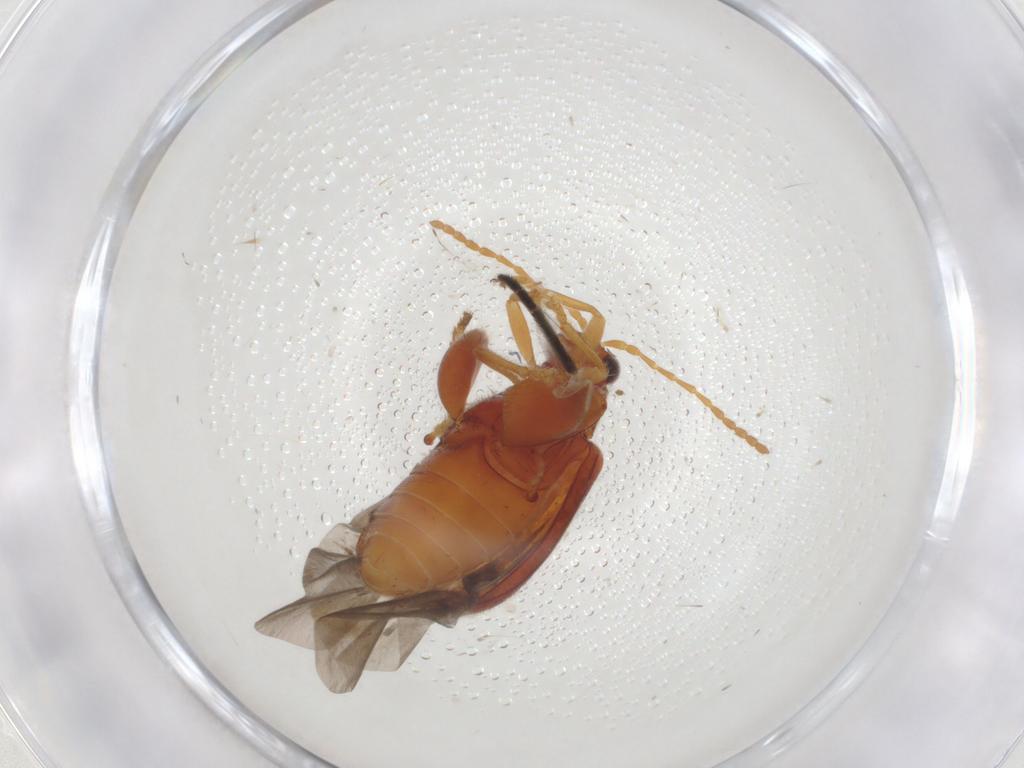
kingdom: Animalia
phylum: Arthropoda
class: Insecta
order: Coleoptera
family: Chrysomelidae
